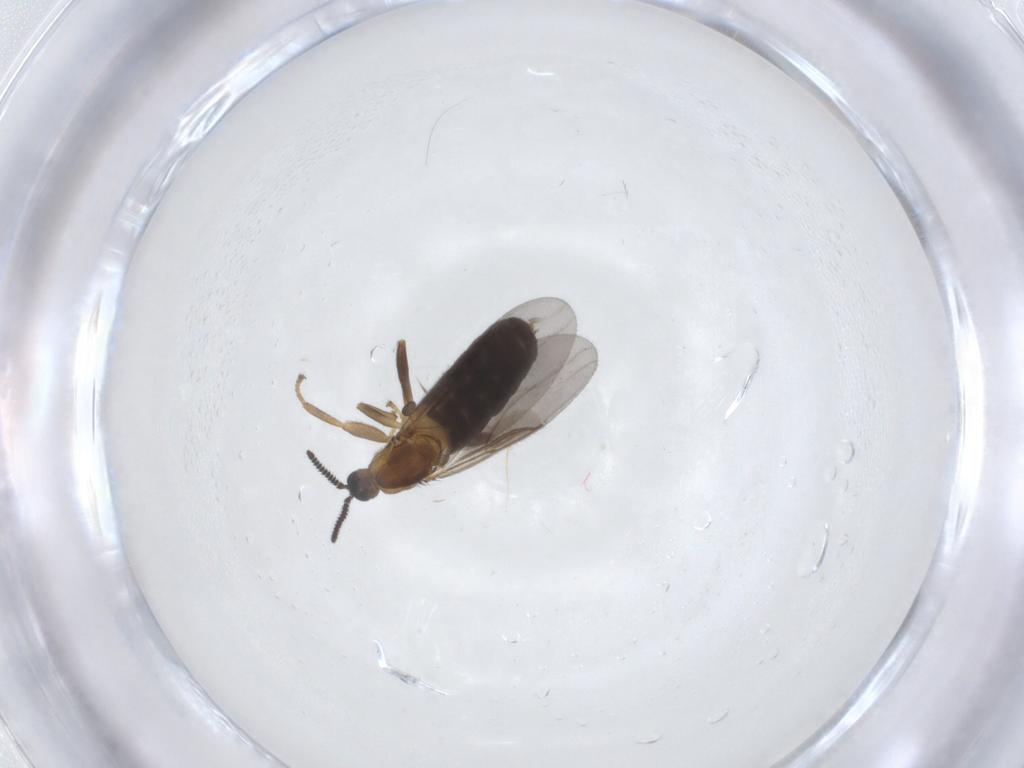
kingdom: Animalia
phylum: Arthropoda
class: Insecta
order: Diptera
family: Scatopsidae
